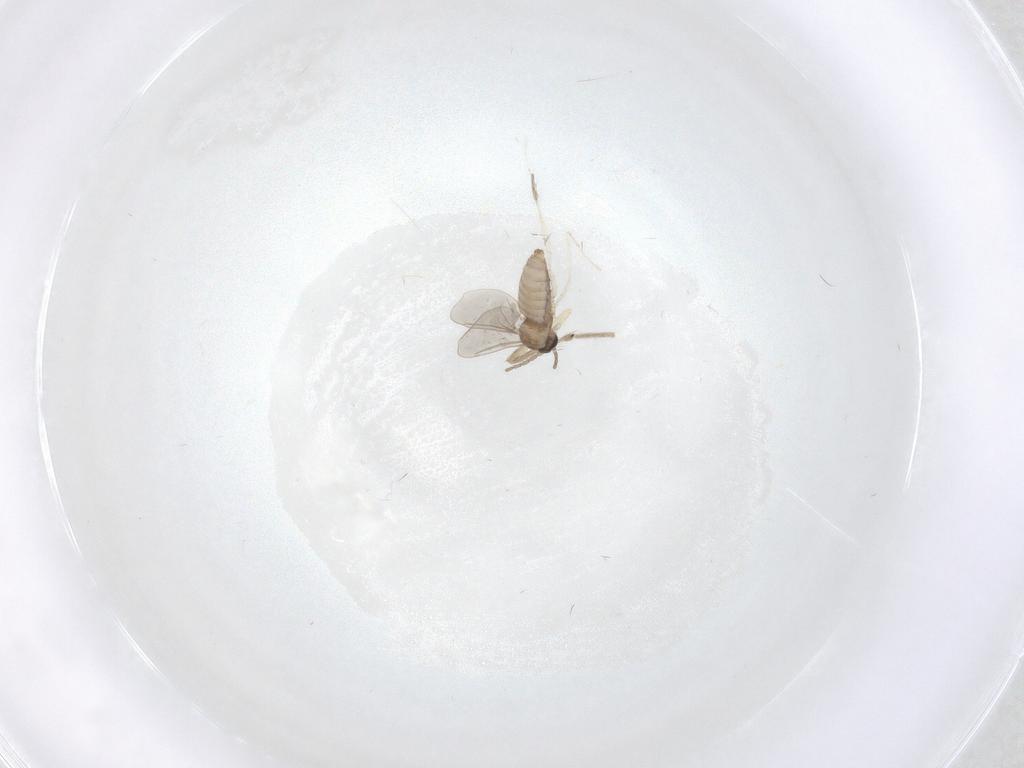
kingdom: Animalia
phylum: Arthropoda
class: Insecta
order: Diptera
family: Cecidomyiidae
